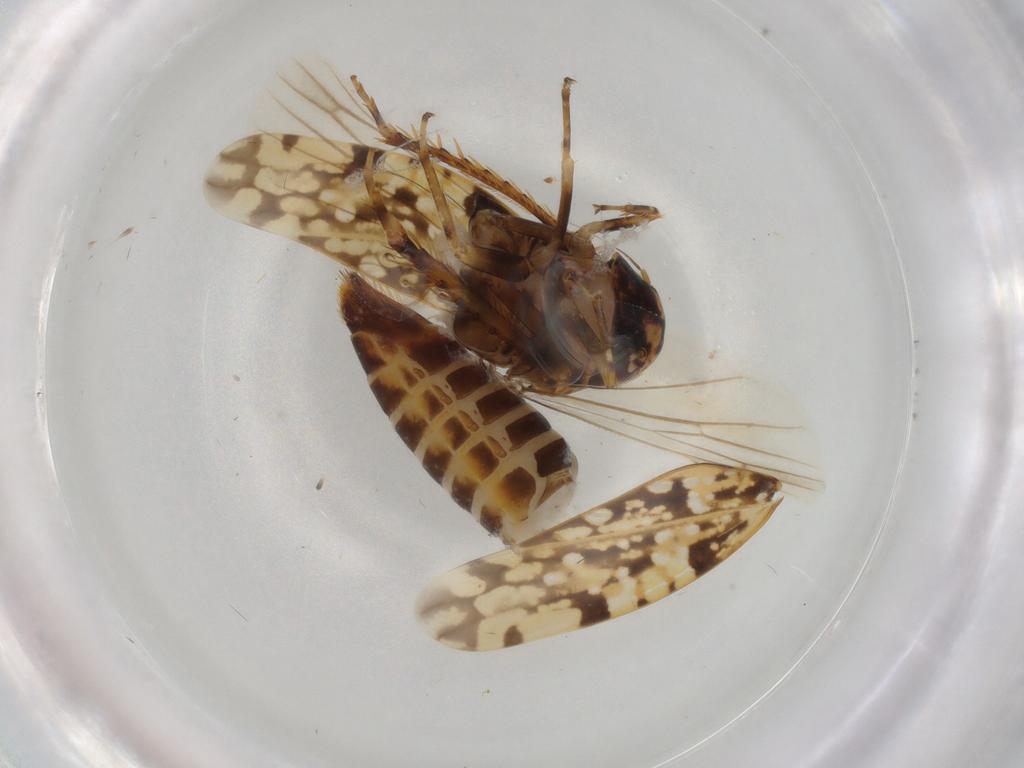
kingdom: Animalia
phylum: Arthropoda
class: Insecta
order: Hemiptera
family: Cicadellidae
